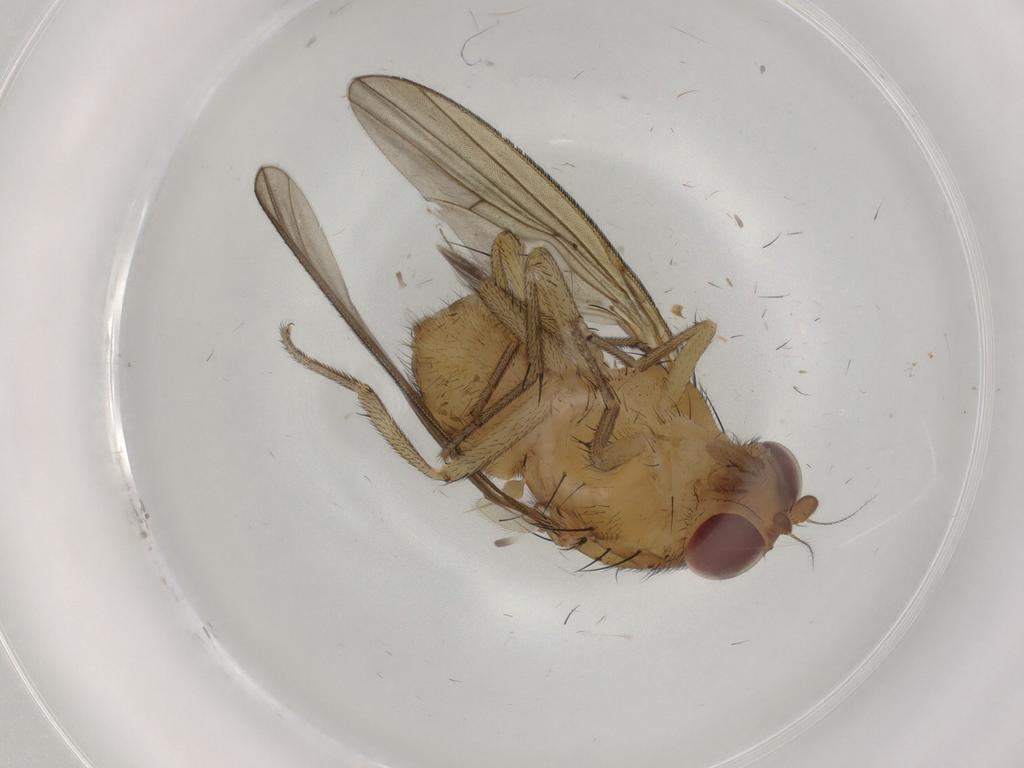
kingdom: Animalia
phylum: Arthropoda
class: Insecta
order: Diptera
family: Cecidomyiidae
